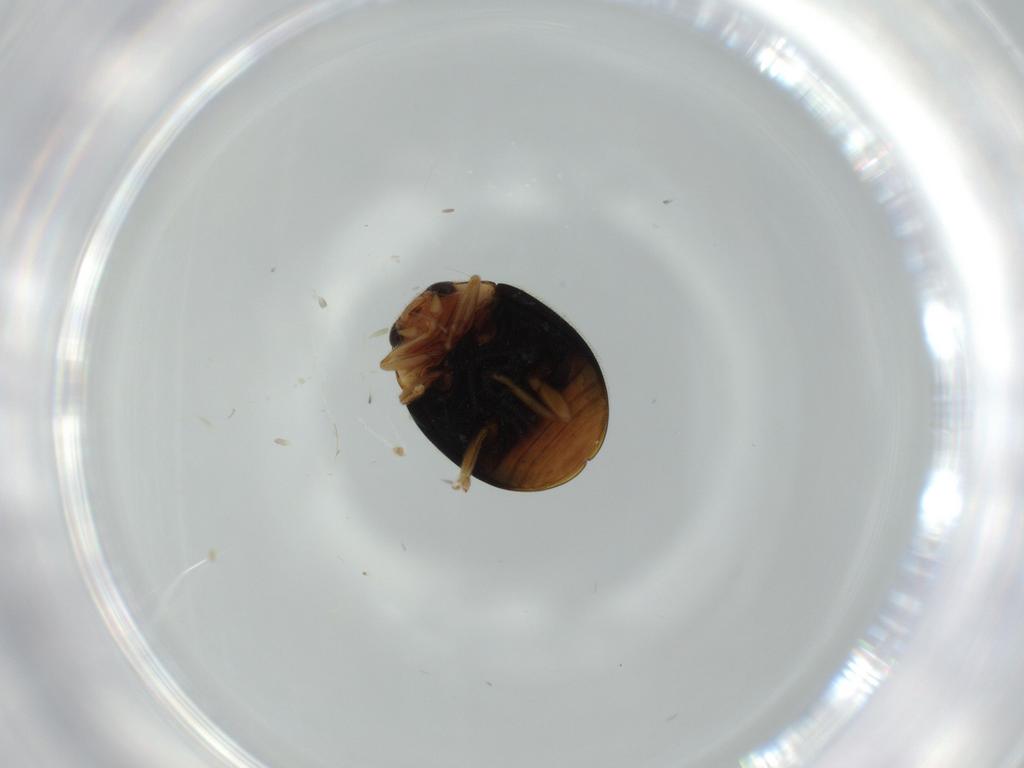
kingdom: Animalia
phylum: Arthropoda
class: Insecta
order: Coleoptera
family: Coccinellidae
